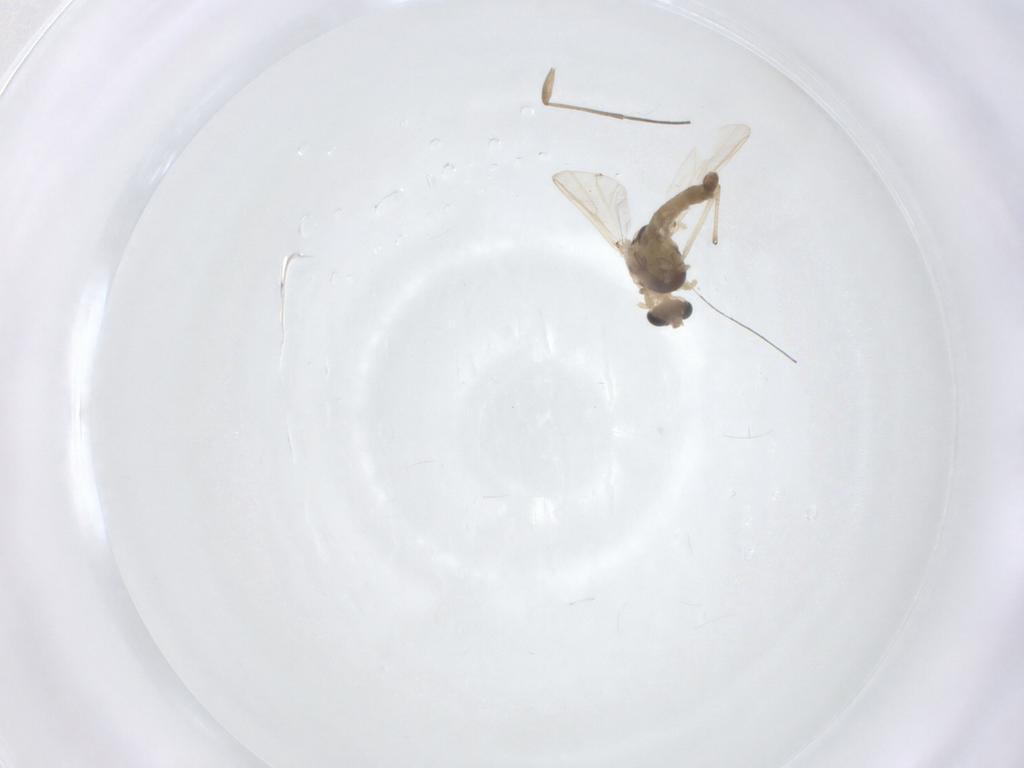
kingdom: Animalia
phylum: Arthropoda
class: Insecta
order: Diptera
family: Chironomidae
